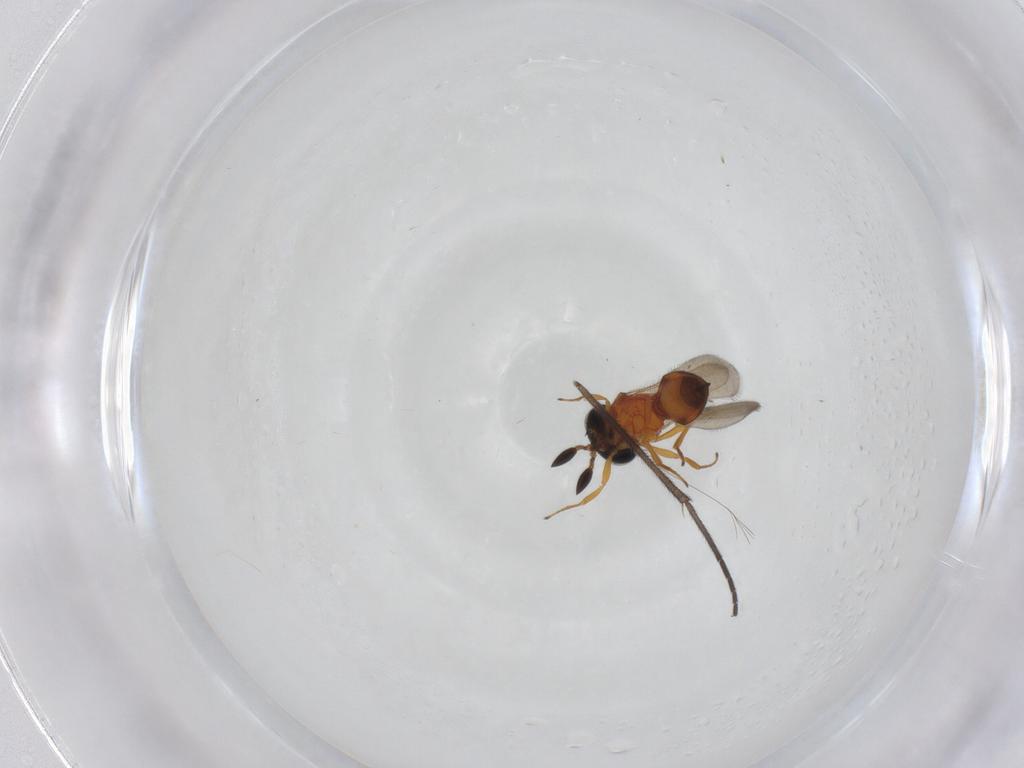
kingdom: Animalia
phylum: Arthropoda
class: Insecta
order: Hymenoptera
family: Scelionidae
